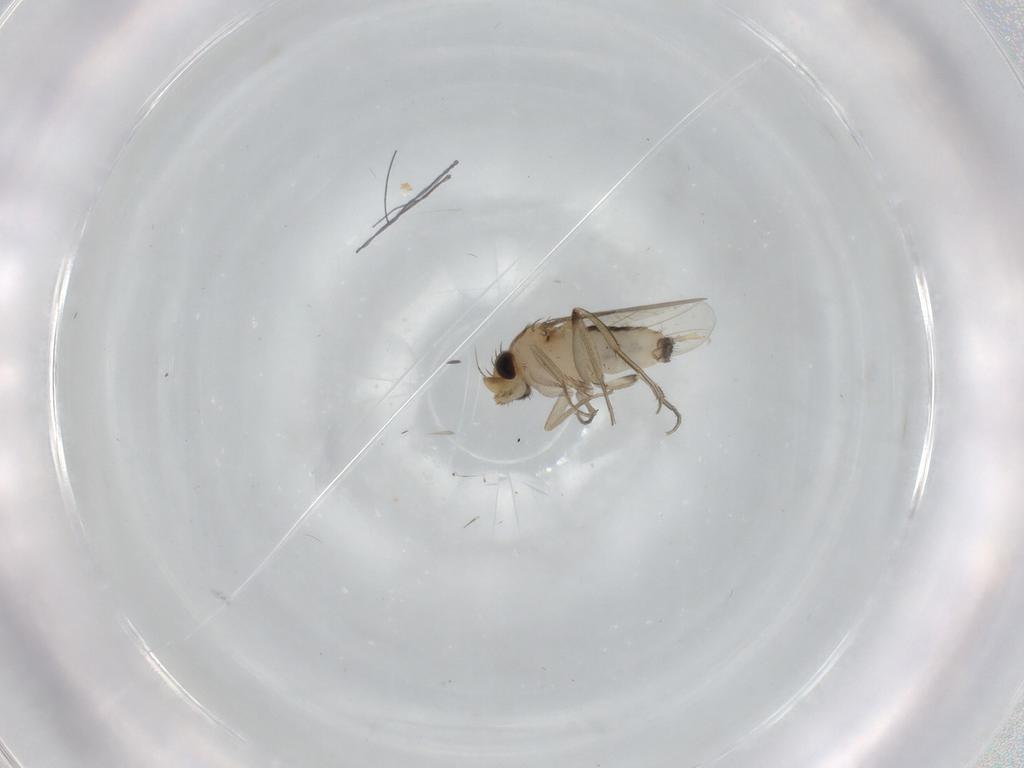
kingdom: Animalia
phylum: Arthropoda
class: Insecta
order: Diptera
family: Phoridae
